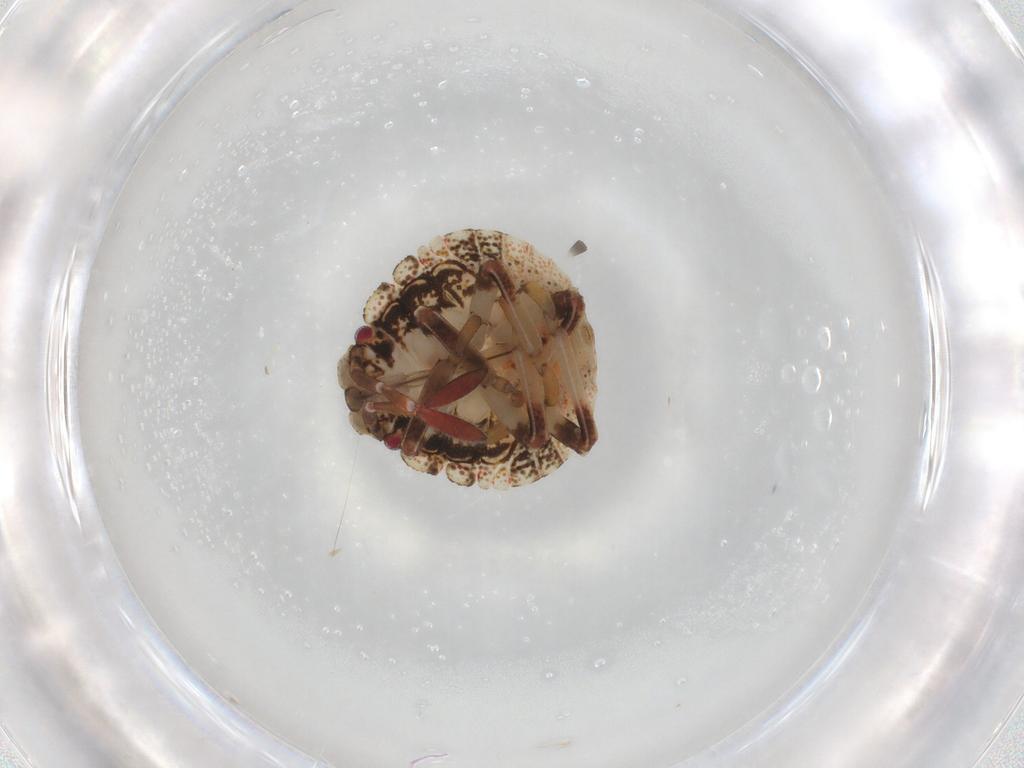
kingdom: Animalia
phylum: Arthropoda
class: Insecta
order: Hemiptera
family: Pentatomidae
